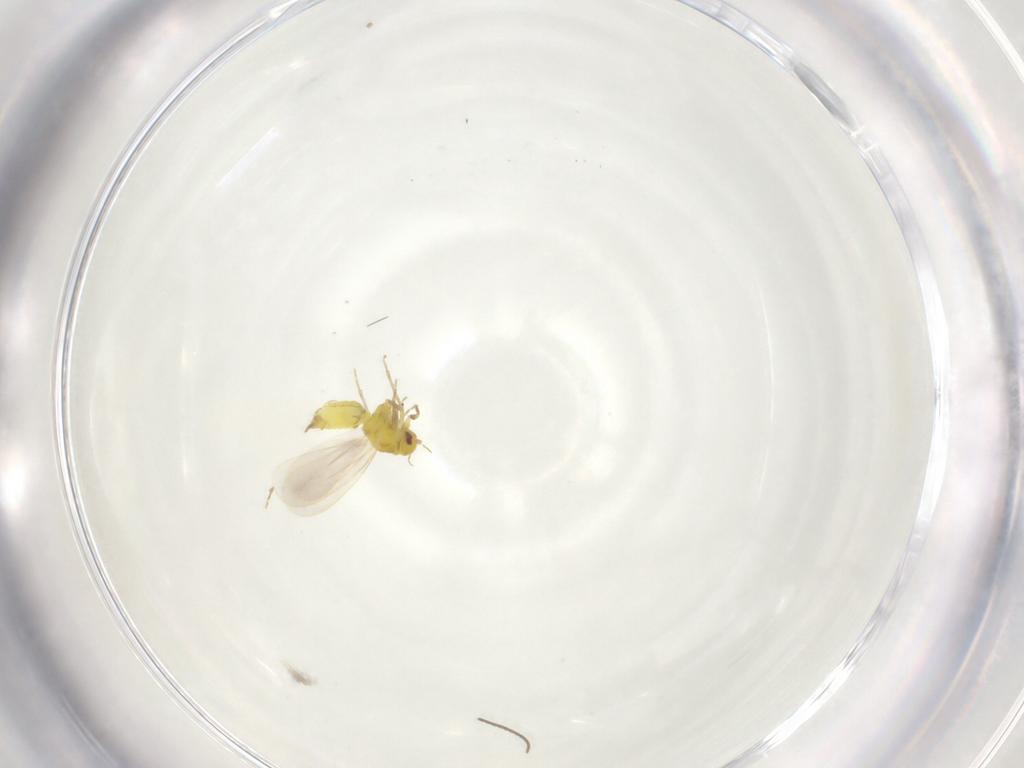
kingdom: Animalia
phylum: Arthropoda
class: Insecta
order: Hemiptera
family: Aleyrodidae
